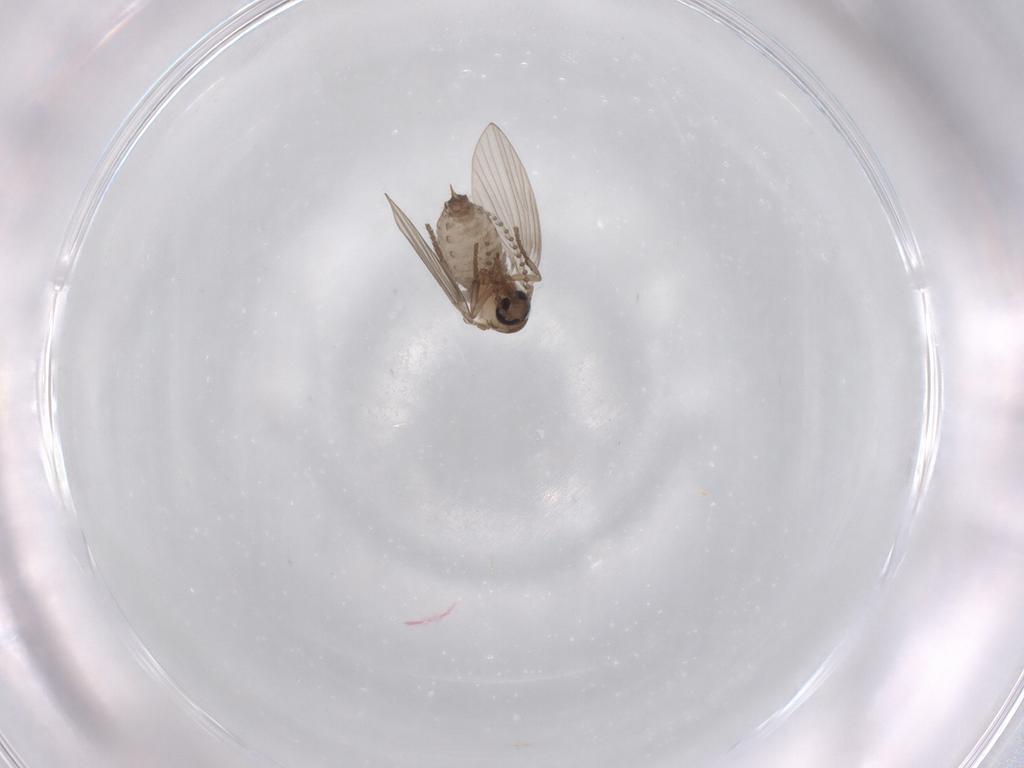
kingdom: Animalia
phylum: Arthropoda
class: Insecta
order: Diptera
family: Psychodidae
